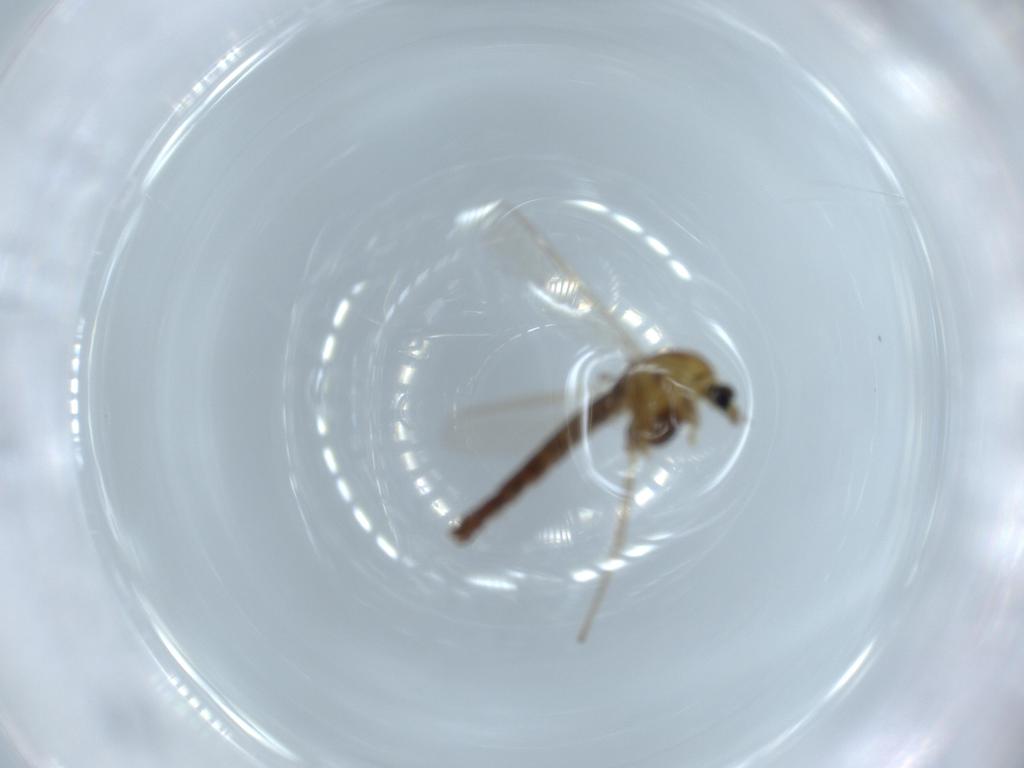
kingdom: Animalia
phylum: Arthropoda
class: Insecta
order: Diptera
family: Chironomidae
